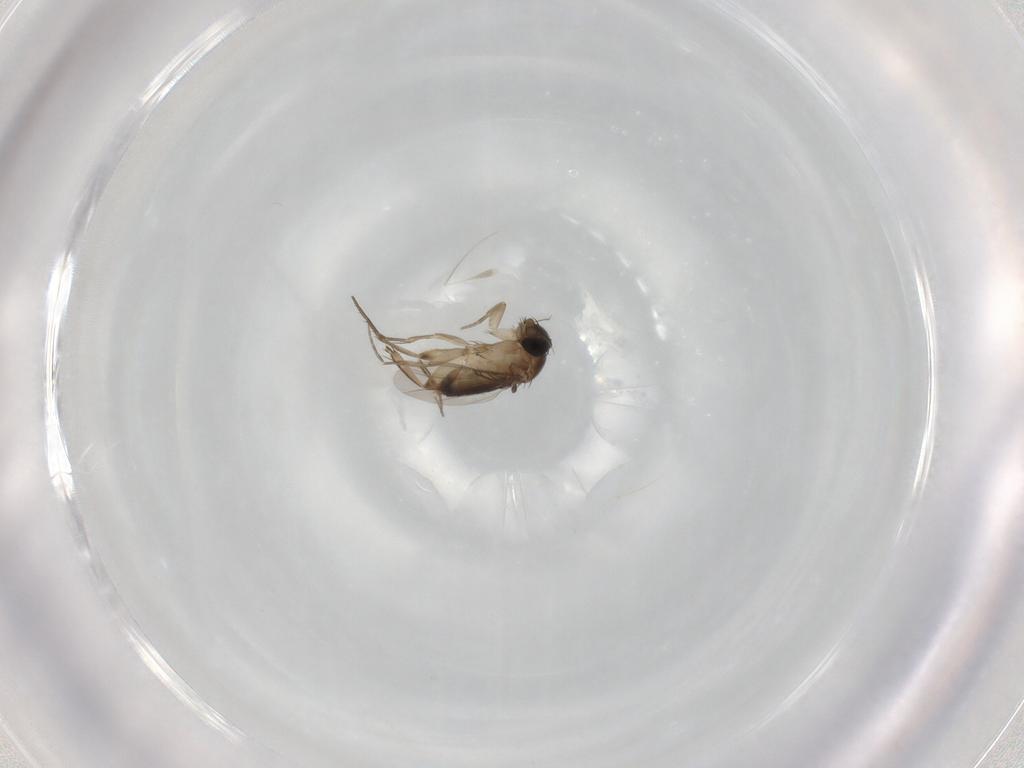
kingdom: Animalia
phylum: Arthropoda
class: Insecta
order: Diptera
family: Phoridae
